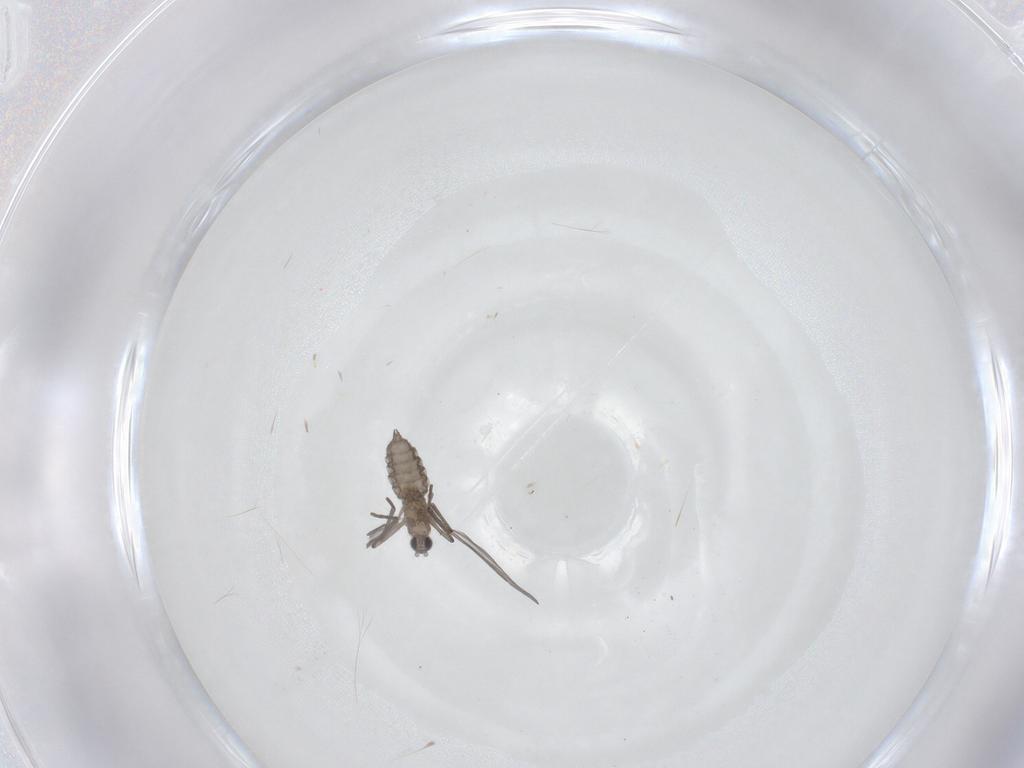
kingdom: Animalia
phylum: Arthropoda
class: Insecta
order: Diptera
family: Cecidomyiidae
